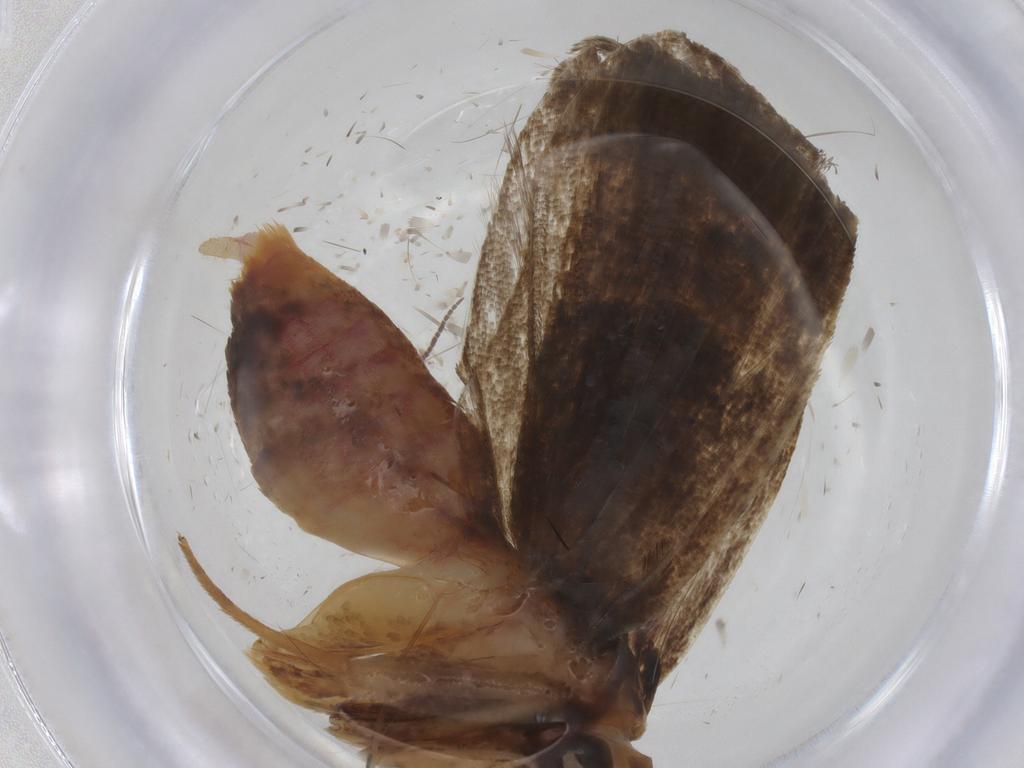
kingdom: Animalia
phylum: Arthropoda
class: Insecta
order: Lepidoptera
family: Lecithoceridae
